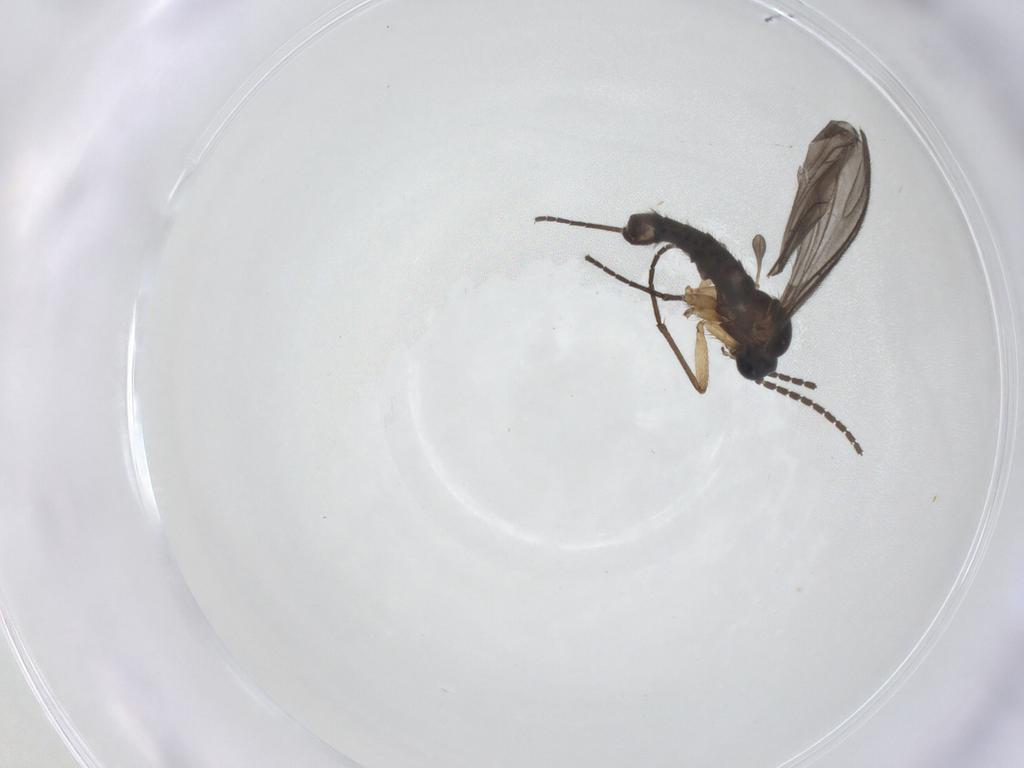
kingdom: Animalia
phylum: Arthropoda
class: Insecta
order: Diptera
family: Sciaridae
